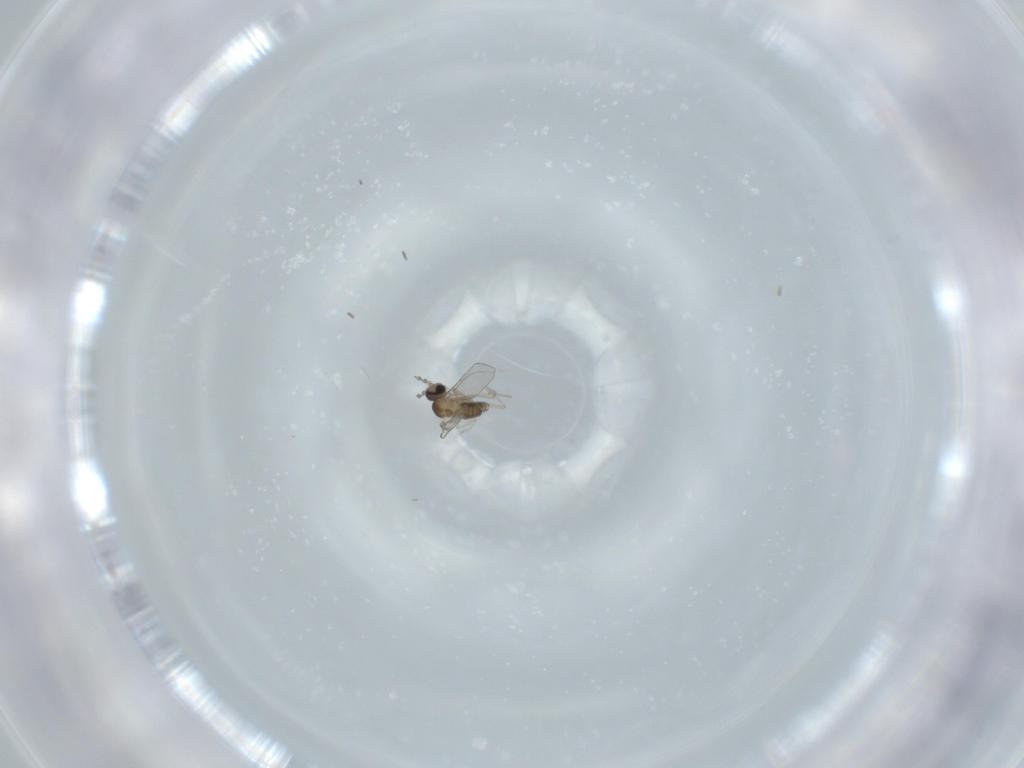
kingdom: Animalia
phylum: Arthropoda
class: Insecta
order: Diptera
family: Cecidomyiidae
